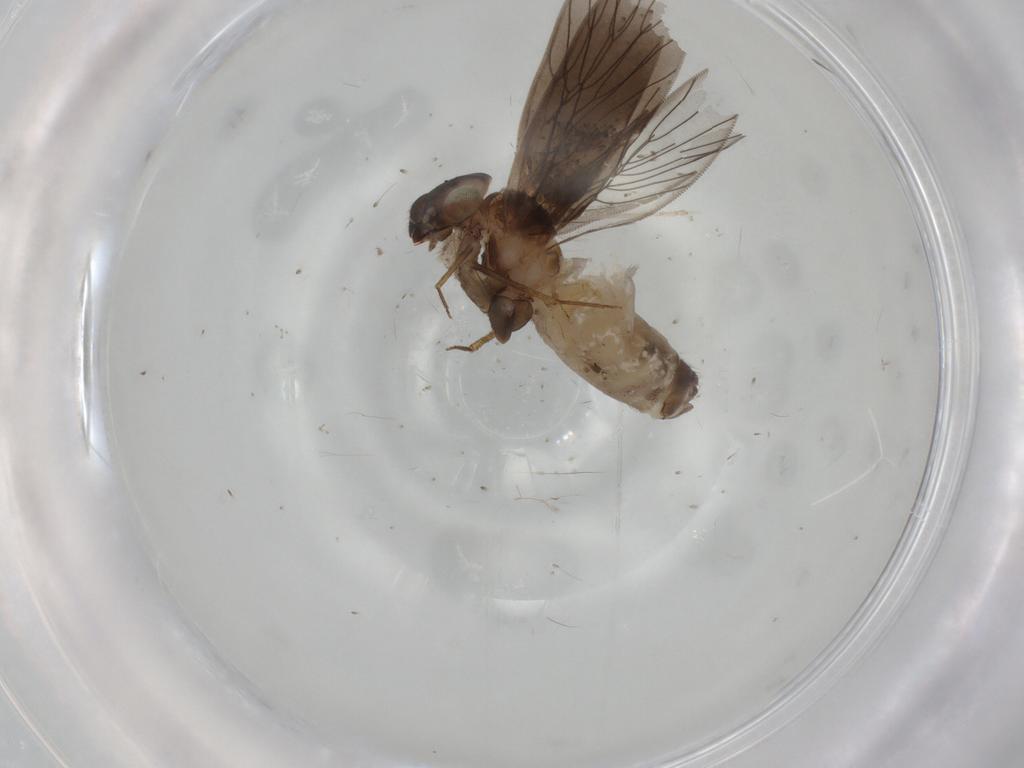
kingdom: Animalia
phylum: Arthropoda
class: Insecta
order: Psocodea
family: Lepidopsocidae
